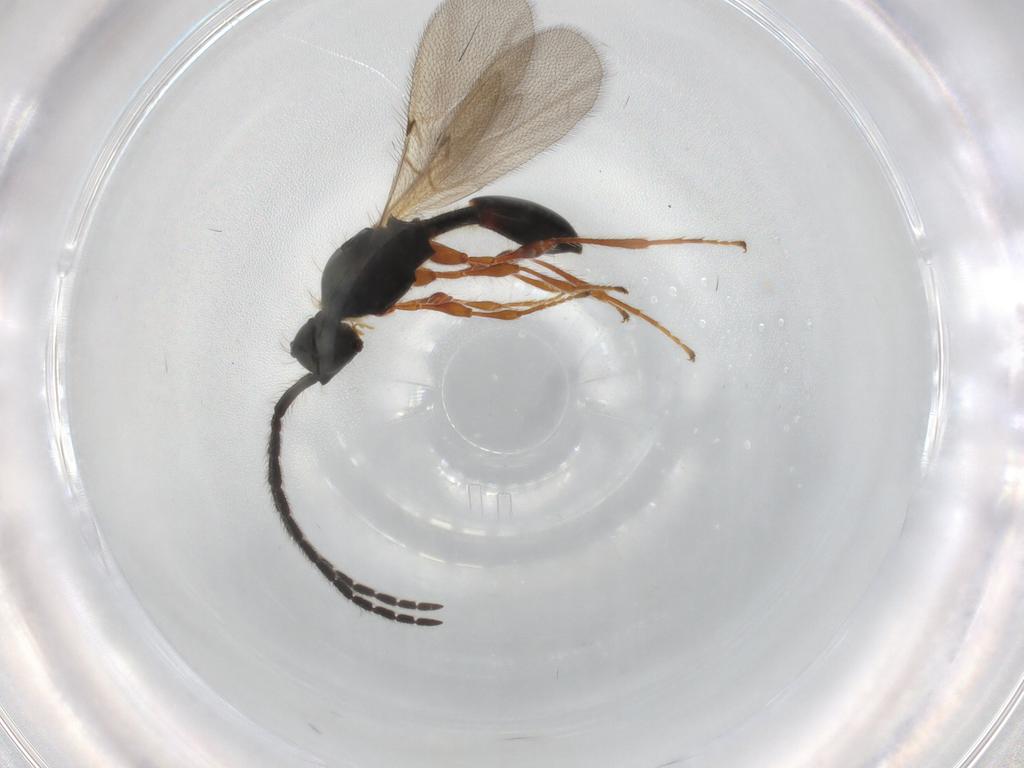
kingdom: Animalia
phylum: Arthropoda
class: Insecta
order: Hymenoptera
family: Diapriidae
